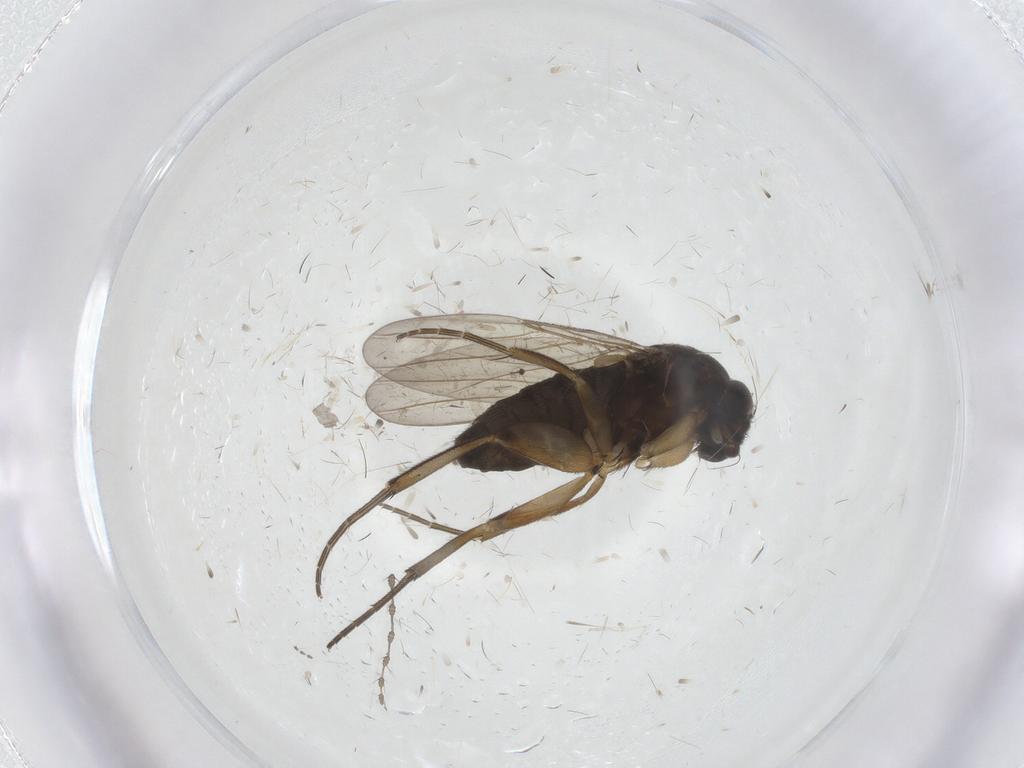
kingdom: Animalia
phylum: Arthropoda
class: Insecta
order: Diptera
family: Phoridae
